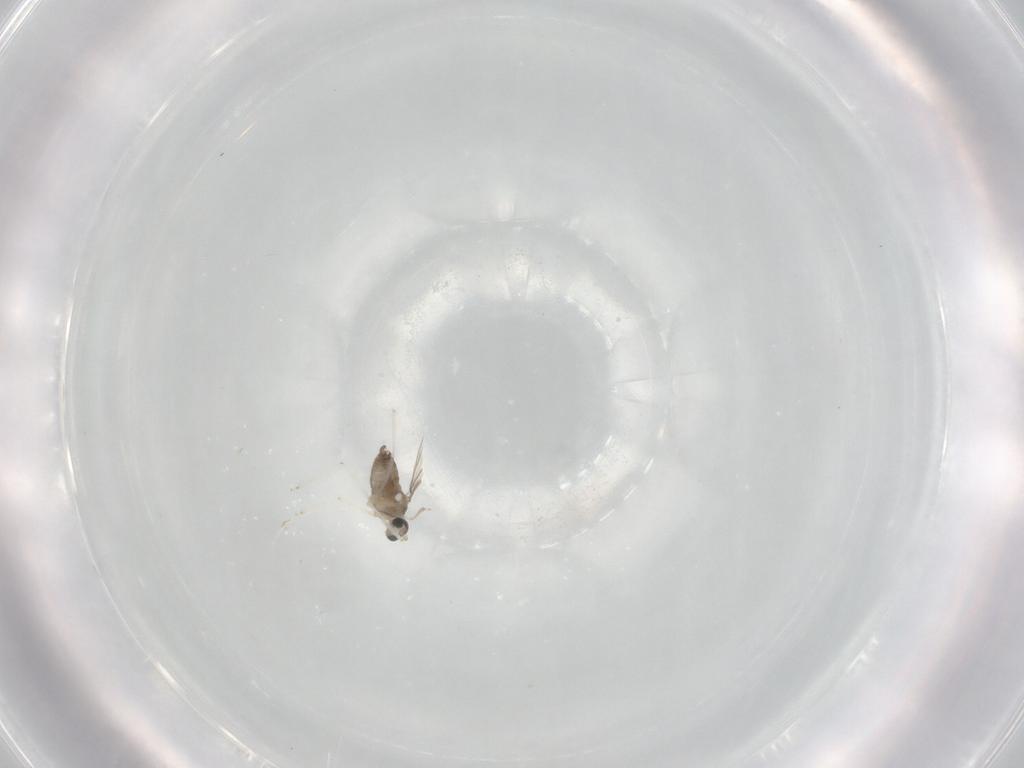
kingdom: Animalia
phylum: Arthropoda
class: Insecta
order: Diptera
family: Cecidomyiidae
